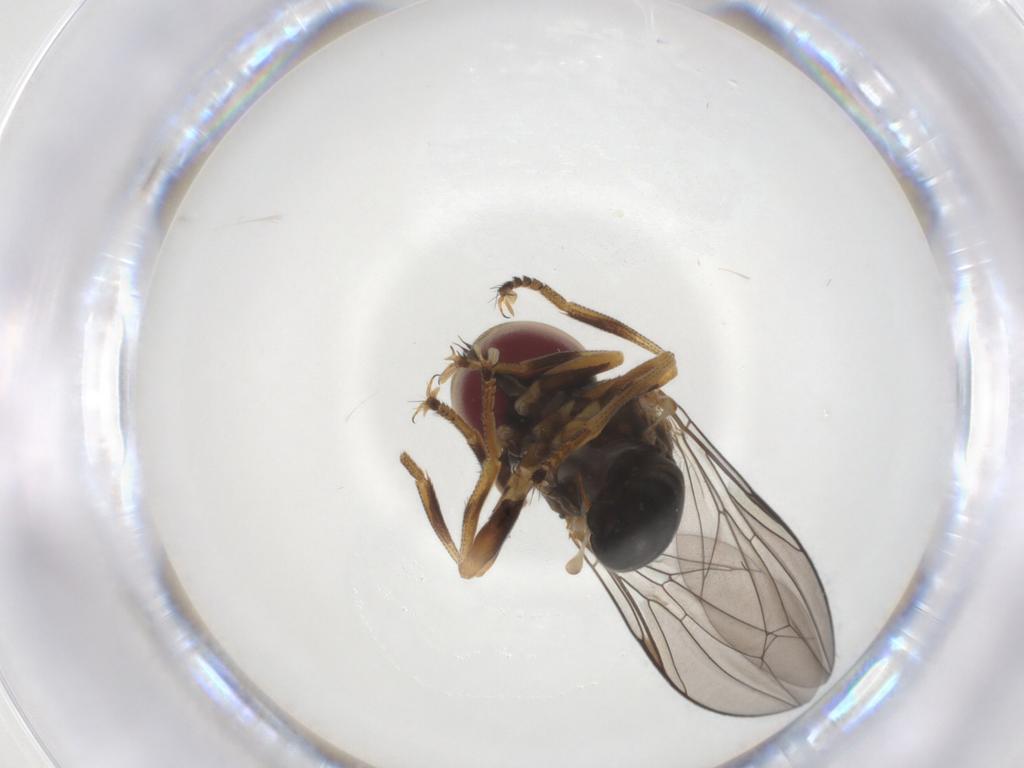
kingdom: Animalia
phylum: Arthropoda
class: Insecta
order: Diptera
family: Pipunculidae
